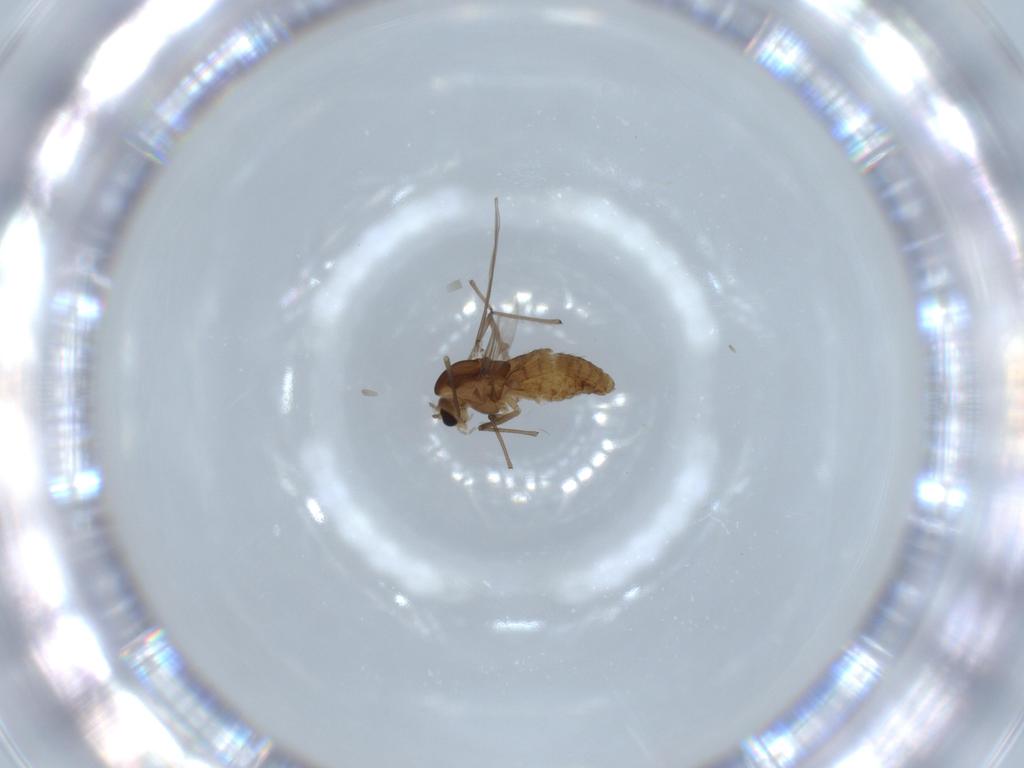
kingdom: Animalia
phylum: Arthropoda
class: Insecta
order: Diptera
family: Chironomidae
